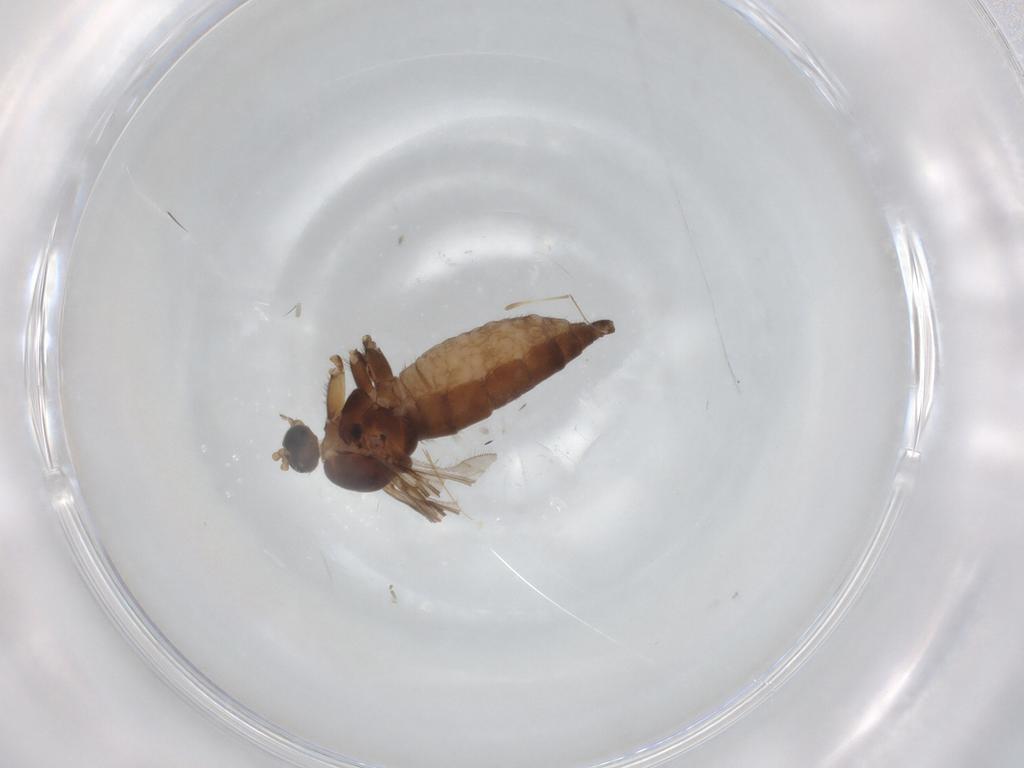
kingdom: Animalia
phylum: Arthropoda
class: Insecta
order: Diptera
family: Sciaridae
